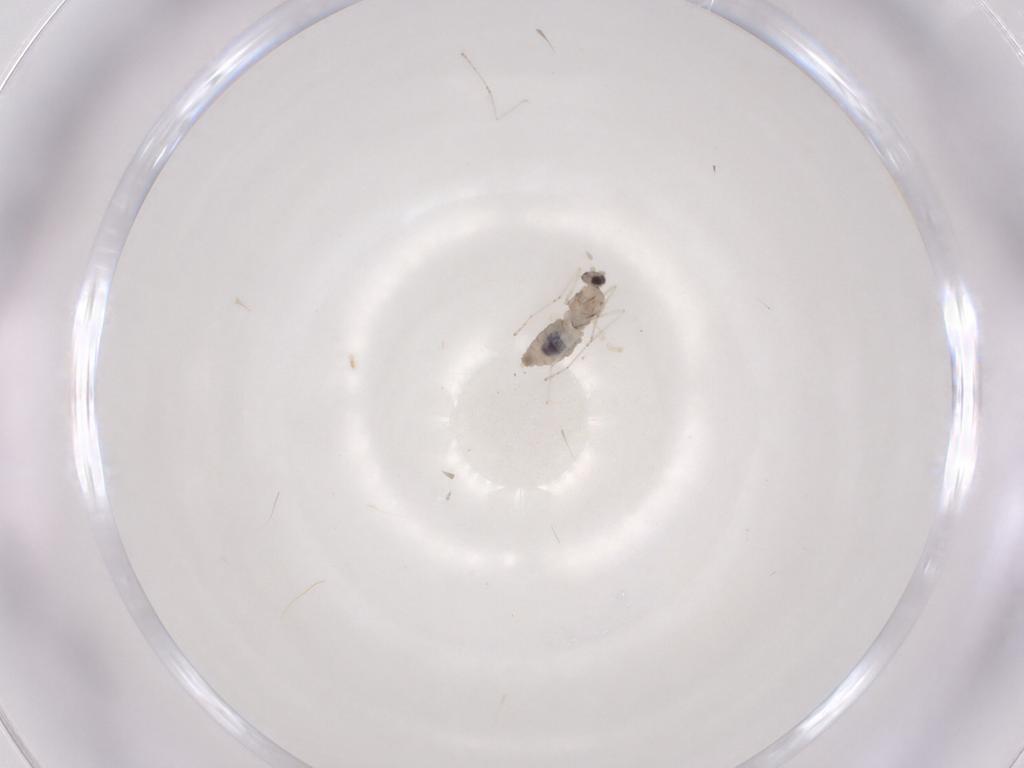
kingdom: Animalia
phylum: Arthropoda
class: Insecta
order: Diptera
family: Cecidomyiidae
